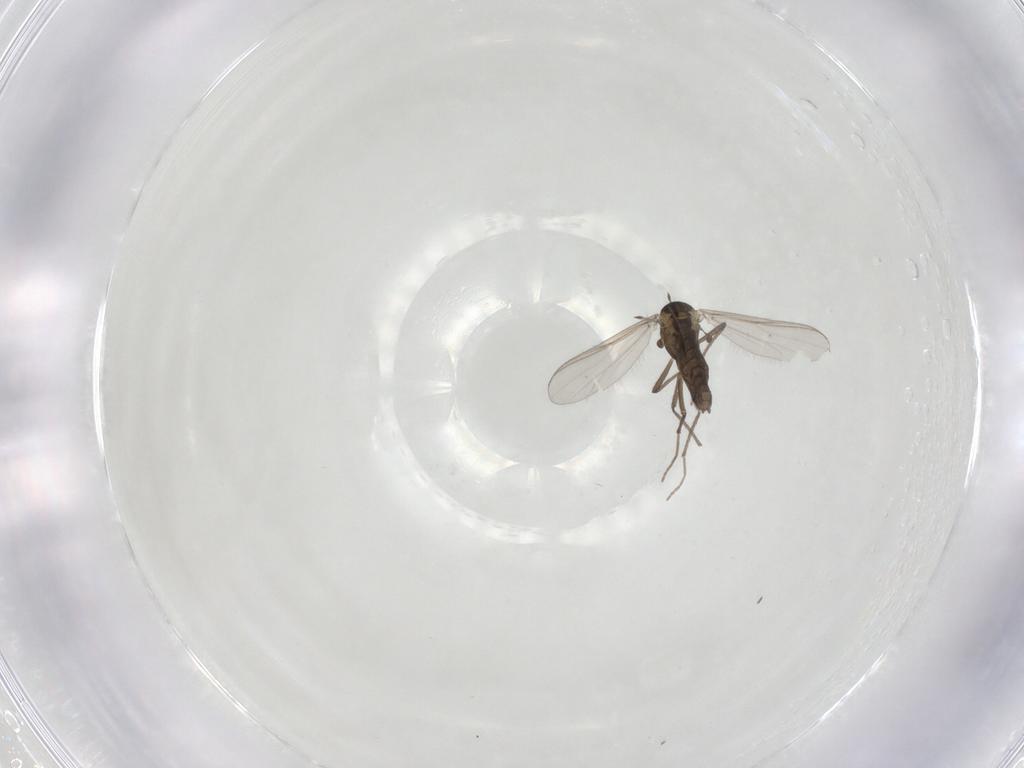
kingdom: Animalia
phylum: Arthropoda
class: Insecta
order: Diptera
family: Chironomidae
